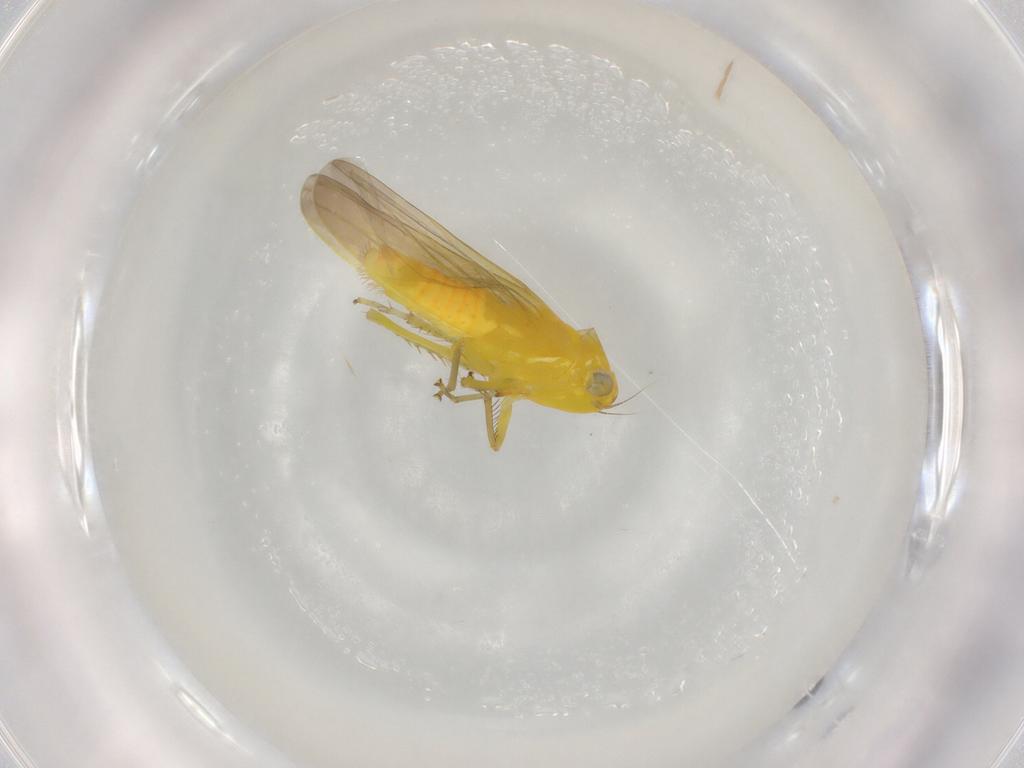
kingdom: Animalia
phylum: Arthropoda
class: Insecta
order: Hemiptera
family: Cicadellidae
